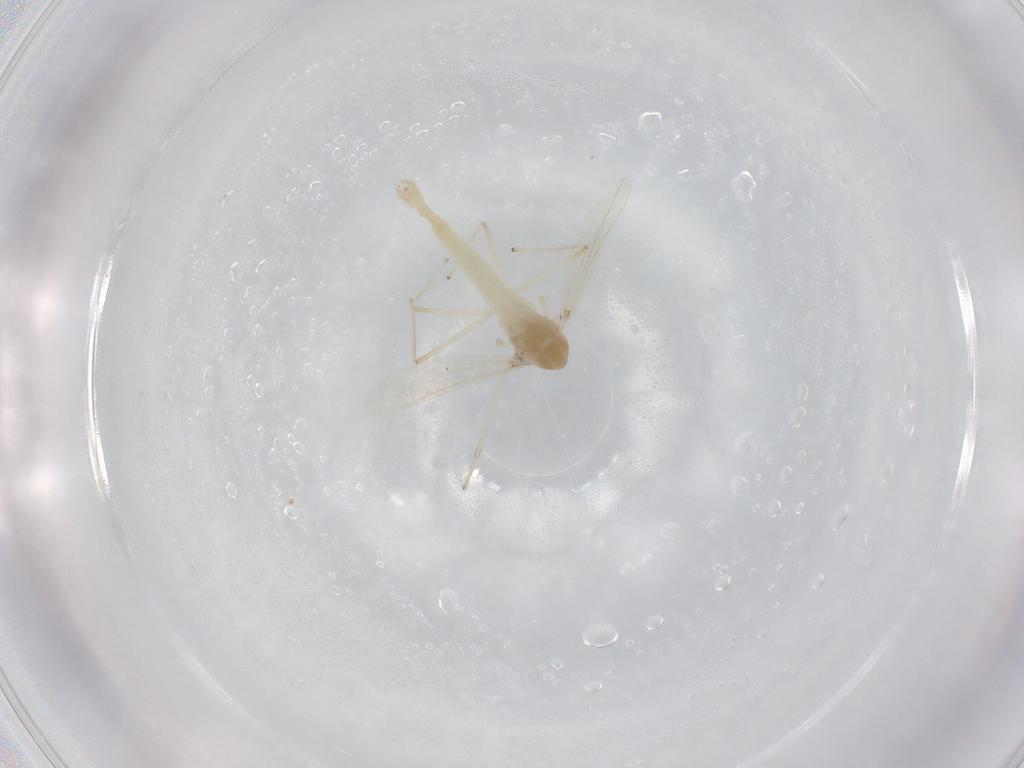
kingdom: Animalia
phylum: Arthropoda
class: Insecta
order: Diptera
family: Chironomidae
